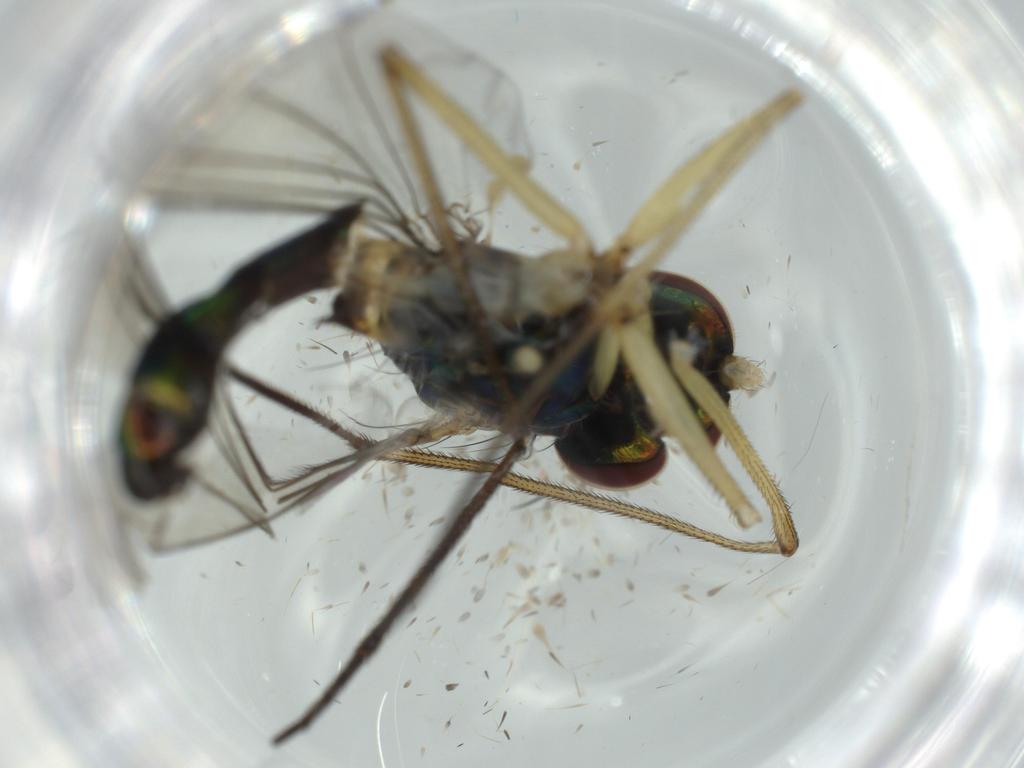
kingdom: Animalia
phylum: Arthropoda
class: Insecta
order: Diptera
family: Dolichopodidae
